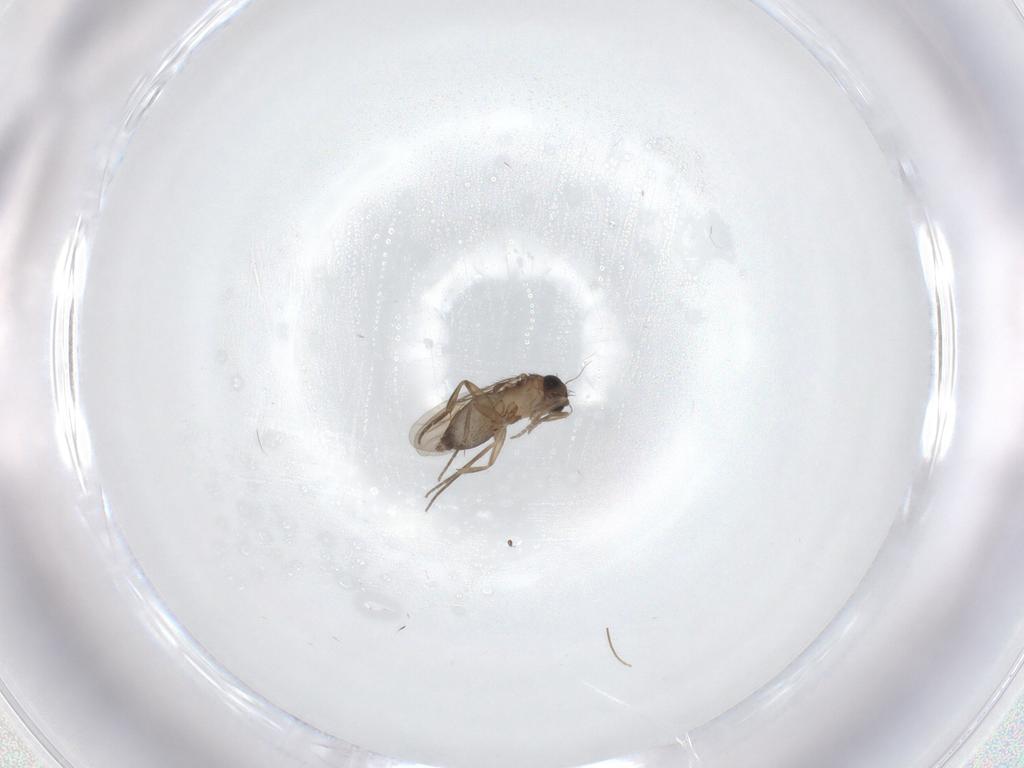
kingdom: Animalia
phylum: Arthropoda
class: Insecta
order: Diptera
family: Phoridae
